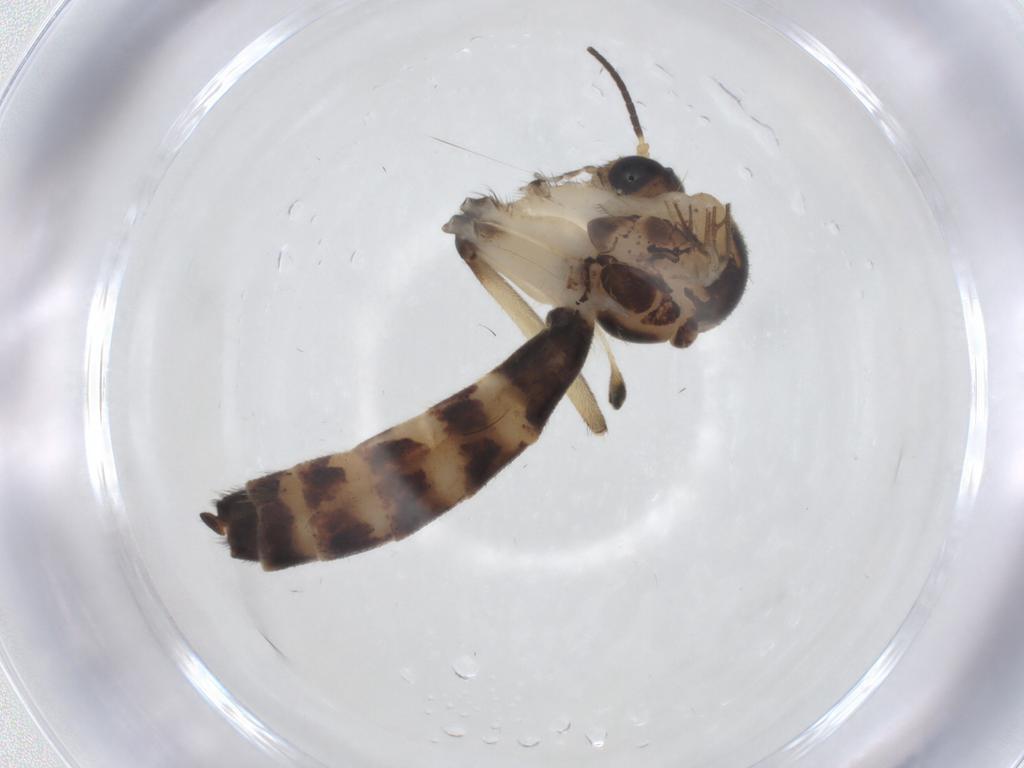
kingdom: Animalia
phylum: Arthropoda
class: Insecta
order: Diptera
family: Psychodidae
